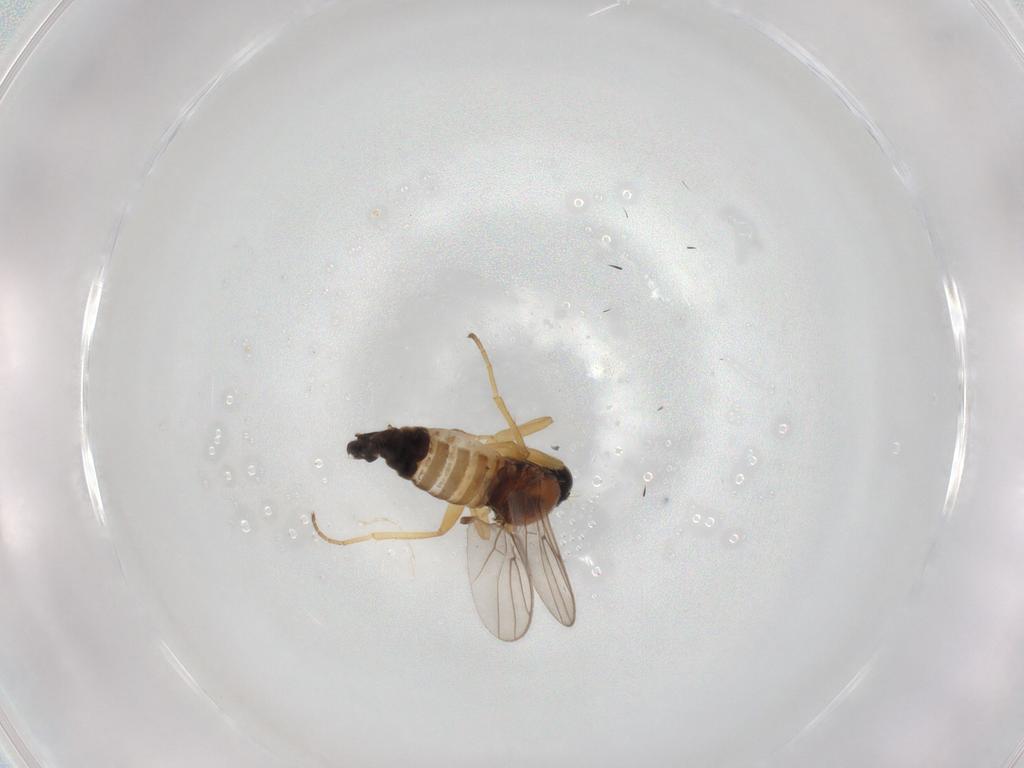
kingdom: Animalia
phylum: Arthropoda
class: Insecta
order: Diptera
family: Hybotidae
